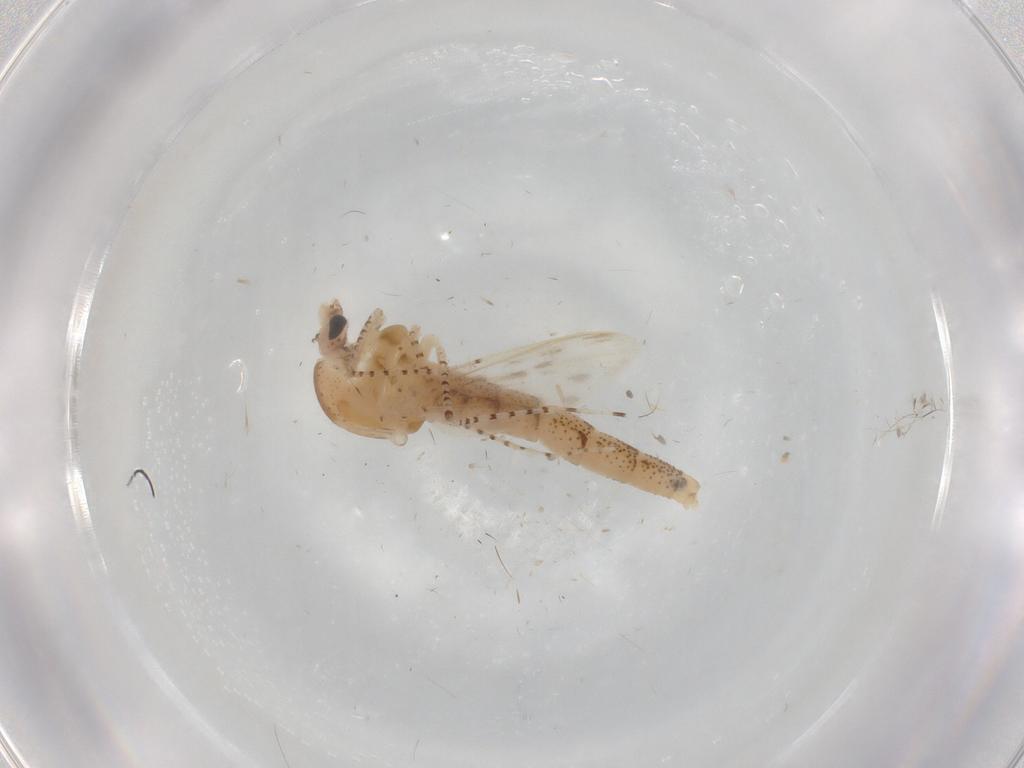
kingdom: Animalia
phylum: Arthropoda
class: Insecta
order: Diptera
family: Chaoboridae
